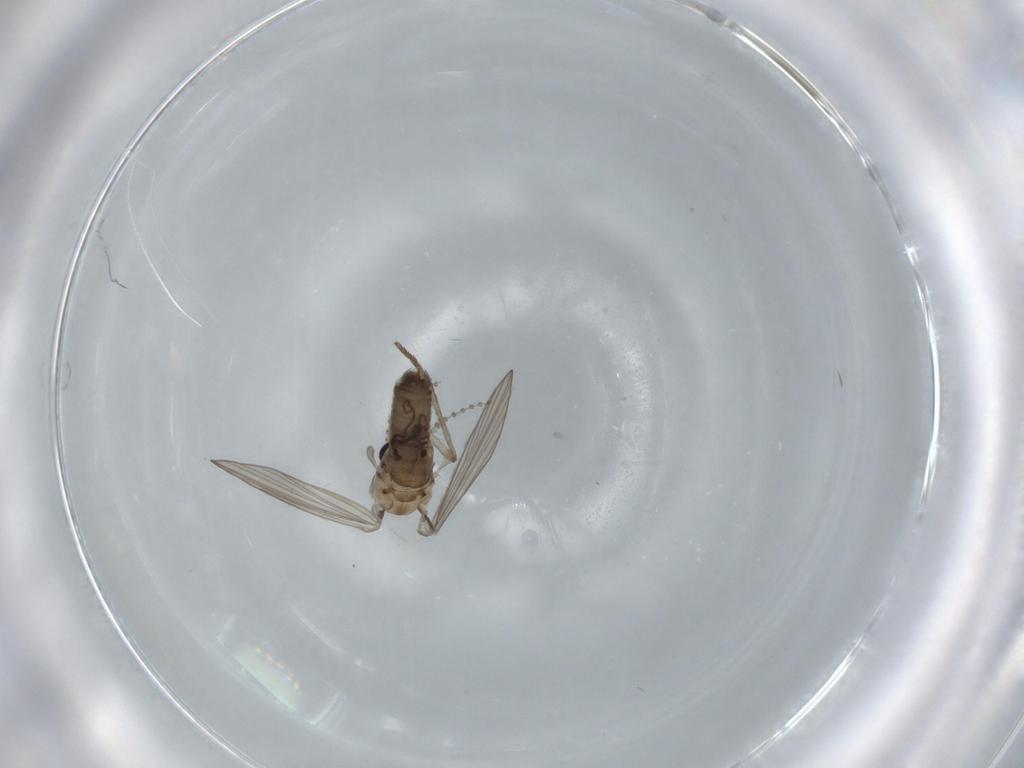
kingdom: Animalia
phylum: Arthropoda
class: Insecta
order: Diptera
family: Psychodidae
